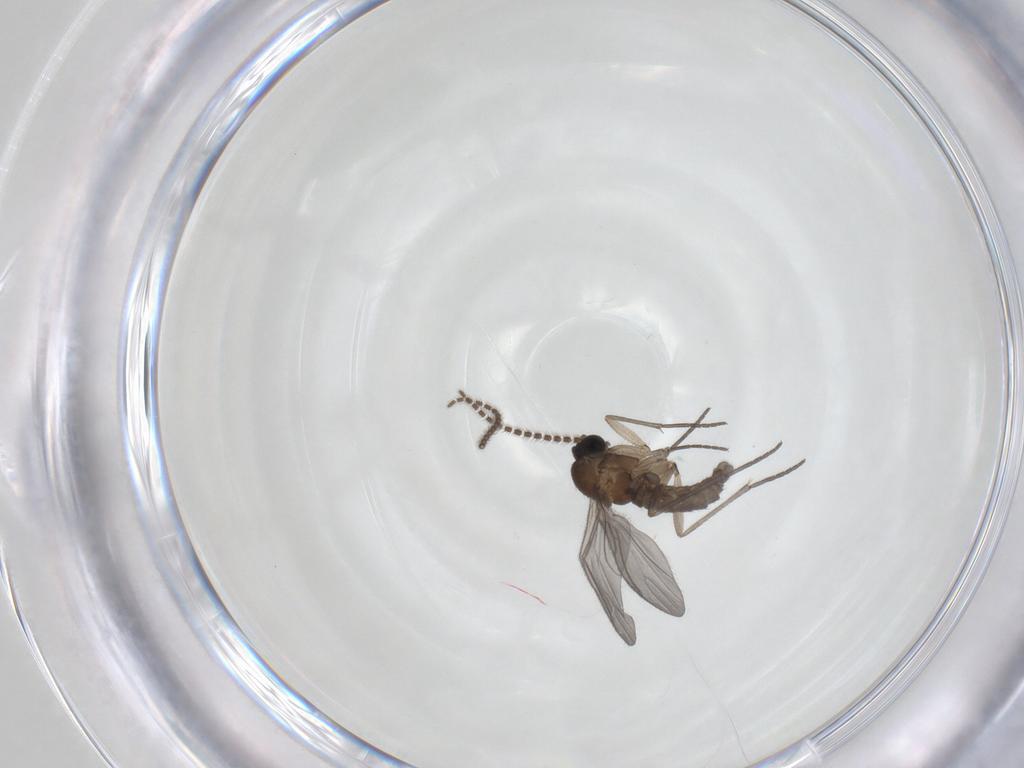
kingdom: Animalia
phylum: Arthropoda
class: Insecta
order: Diptera
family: Sciaridae
